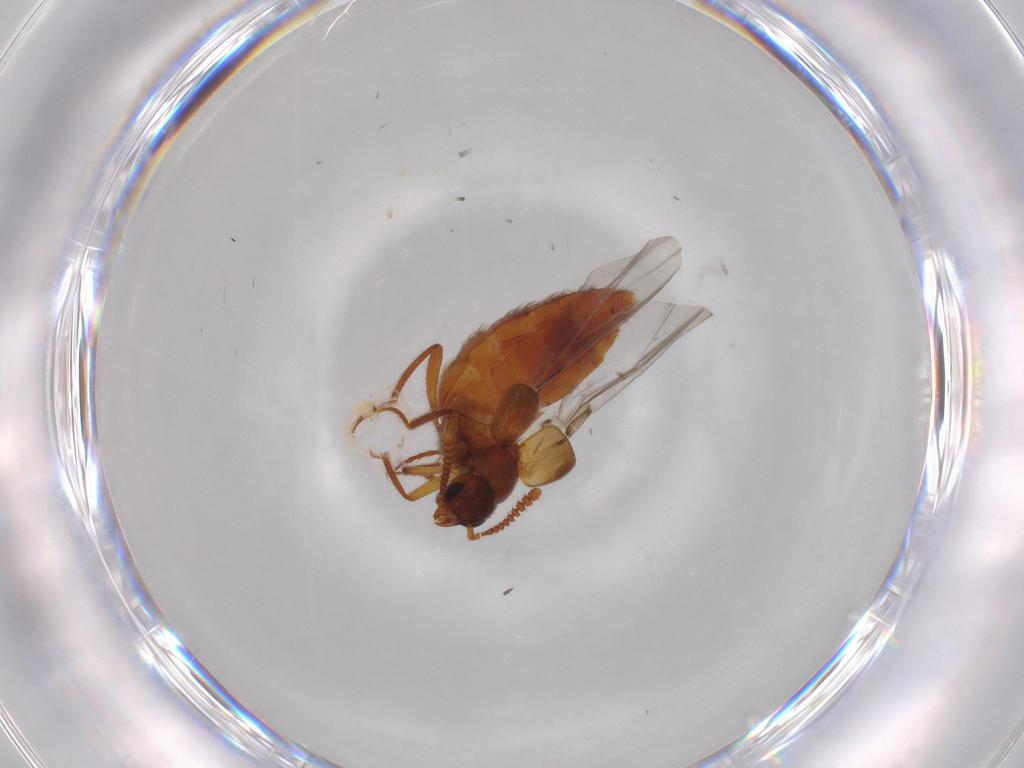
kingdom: Animalia
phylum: Arthropoda
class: Insecta
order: Coleoptera
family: Staphylinidae
